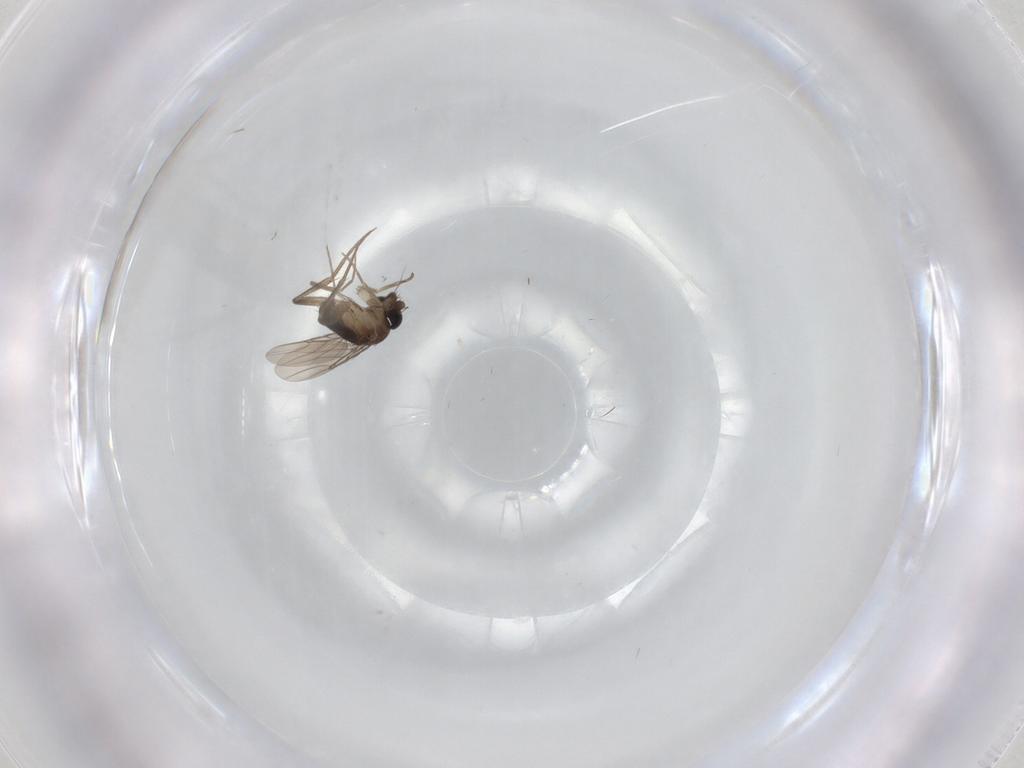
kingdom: Animalia
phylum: Arthropoda
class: Insecta
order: Diptera
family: Phoridae
